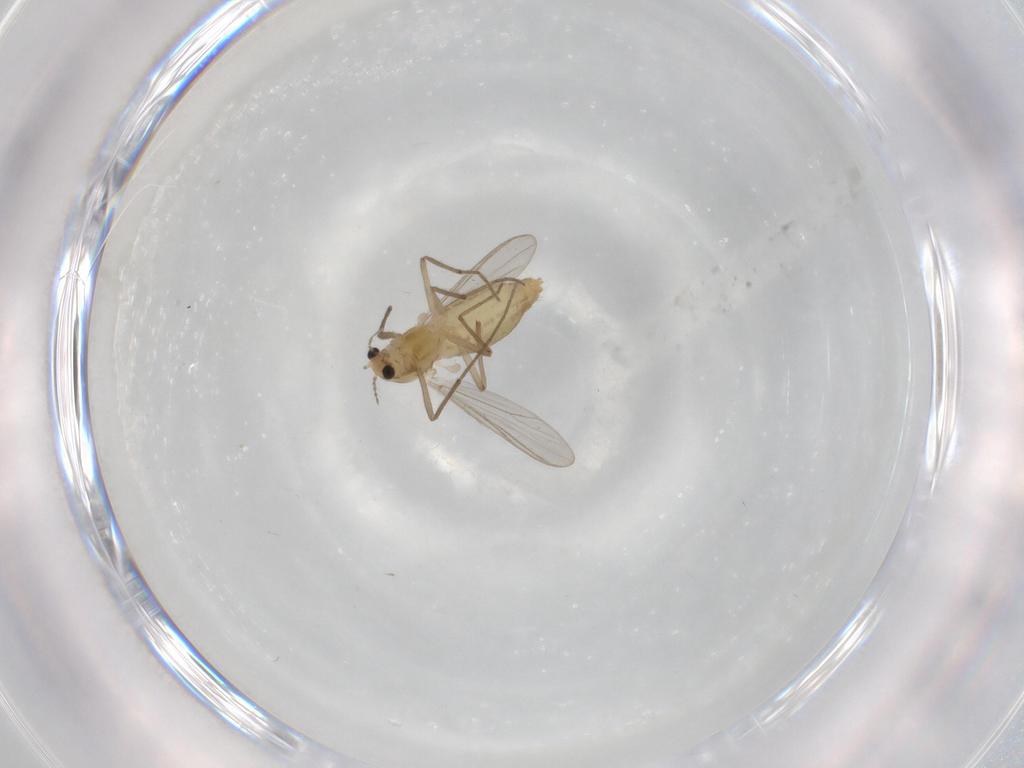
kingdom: Animalia
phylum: Arthropoda
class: Insecta
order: Diptera
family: Chironomidae
